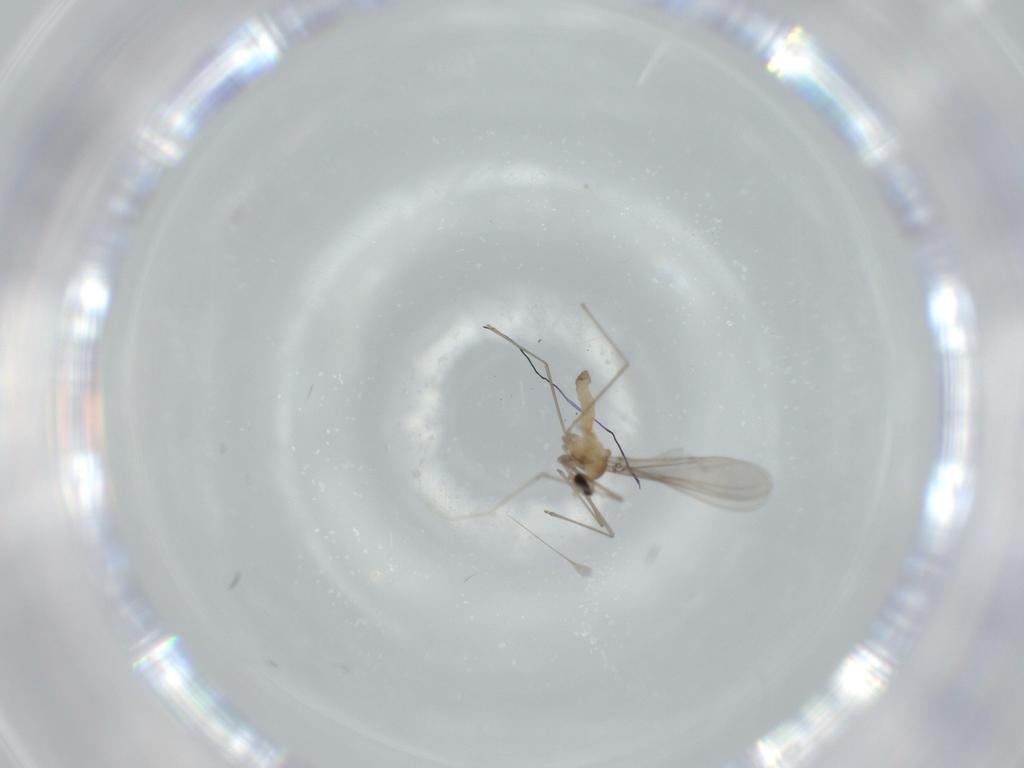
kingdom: Animalia
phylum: Arthropoda
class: Insecta
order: Diptera
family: Cecidomyiidae
